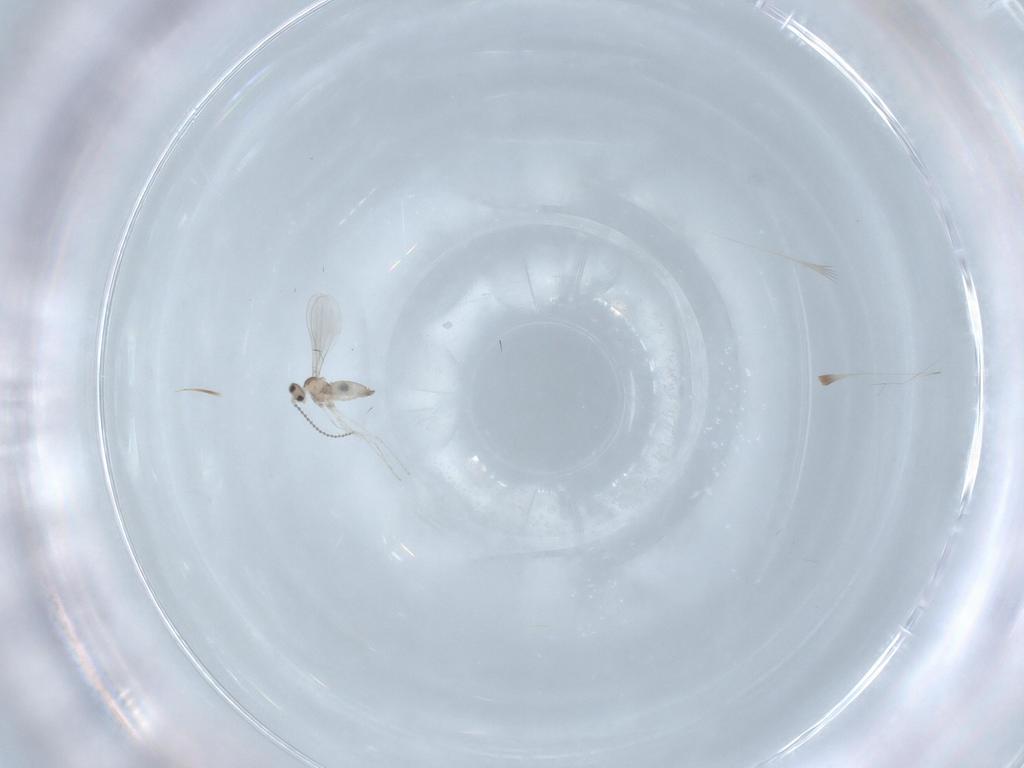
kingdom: Animalia
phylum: Arthropoda
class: Insecta
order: Diptera
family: Cecidomyiidae
